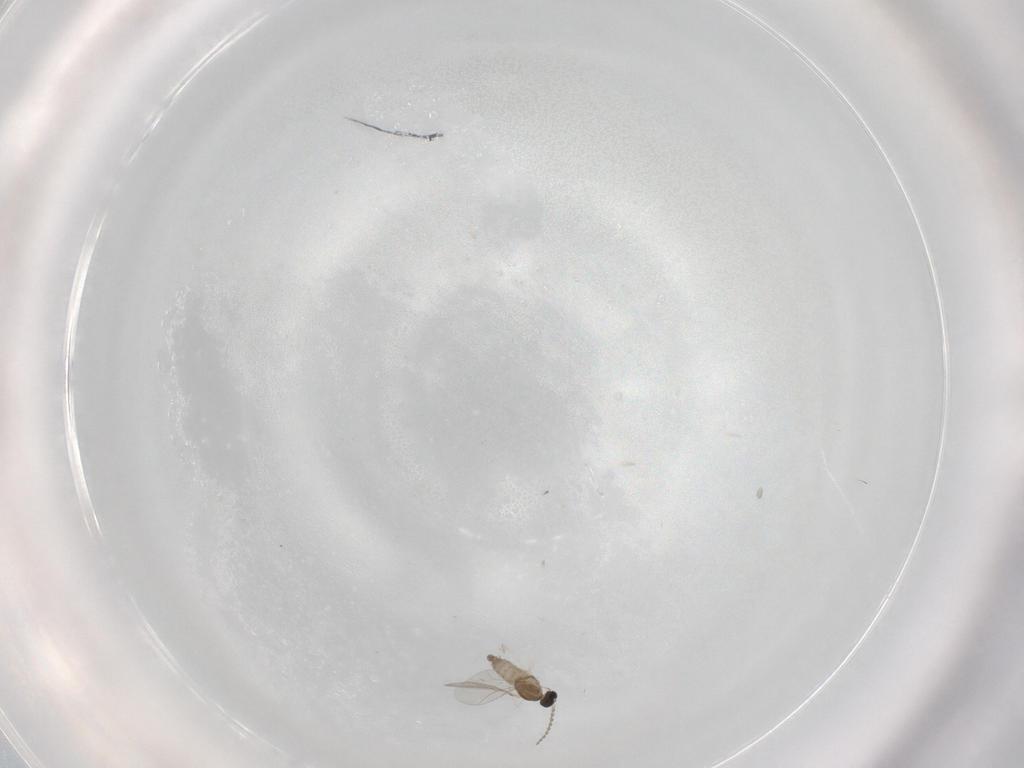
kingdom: Animalia
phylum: Arthropoda
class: Insecta
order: Diptera
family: Cecidomyiidae
